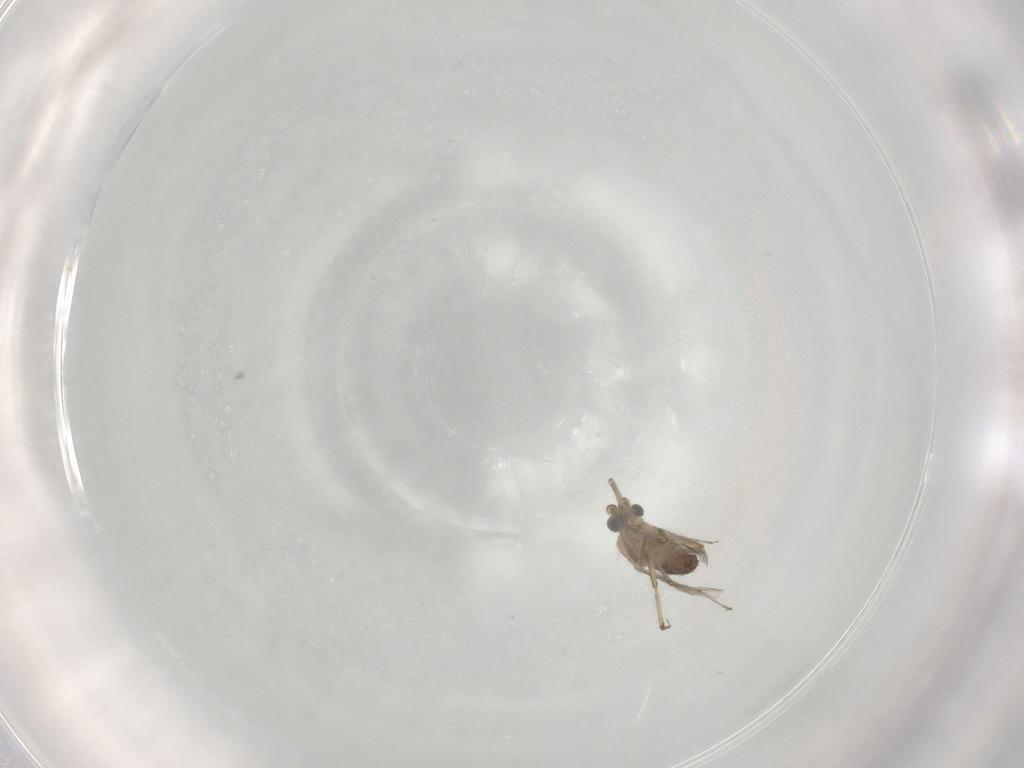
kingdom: Animalia
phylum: Arthropoda
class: Insecta
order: Diptera
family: Ceratopogonidae
